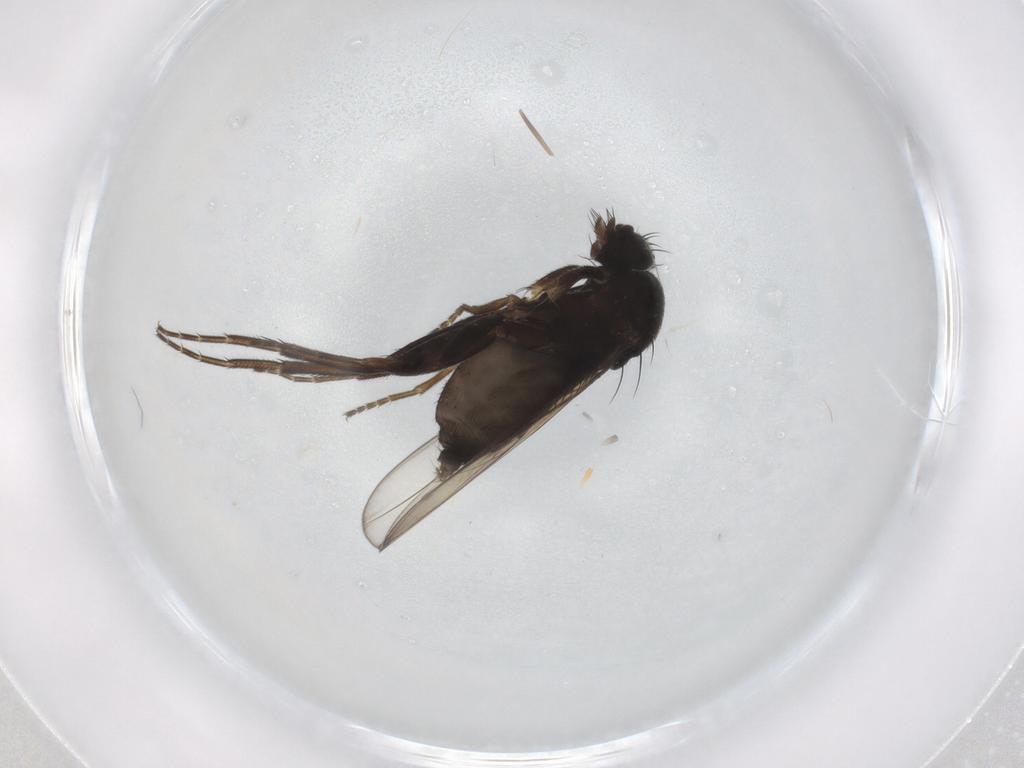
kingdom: Animalia
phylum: Arthropoda
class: Insecta
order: Diptera
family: Phoridae
